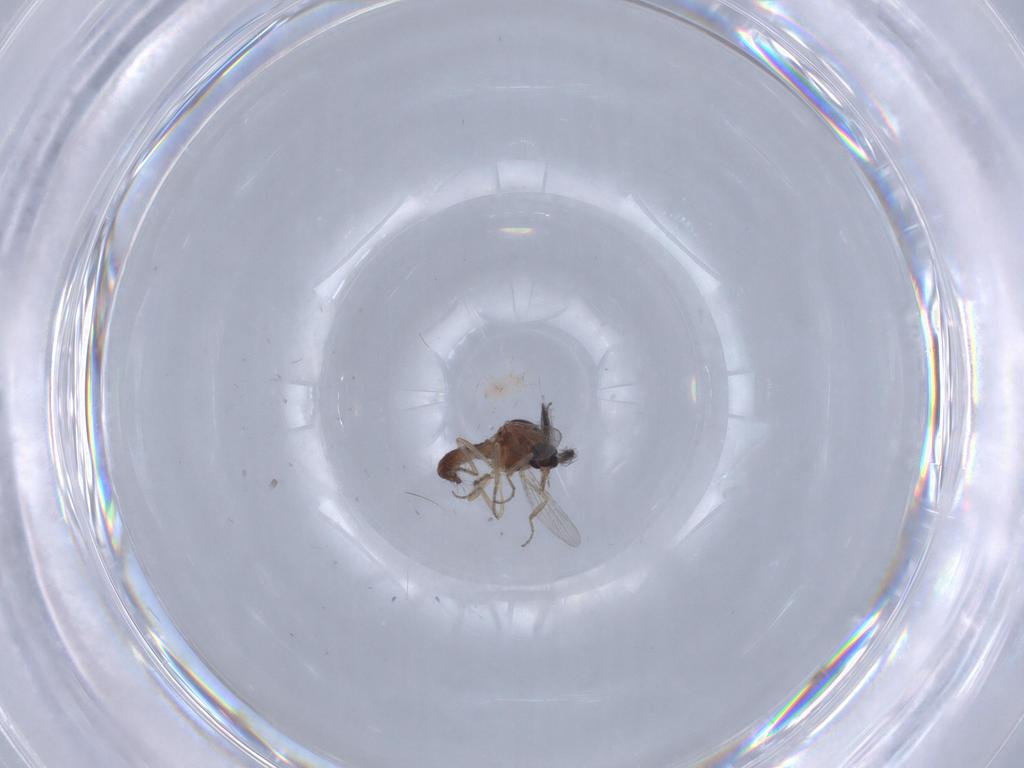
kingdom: Animalia
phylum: Arthropoda
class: Insecta
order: Diptera
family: Ceratopogonidae
